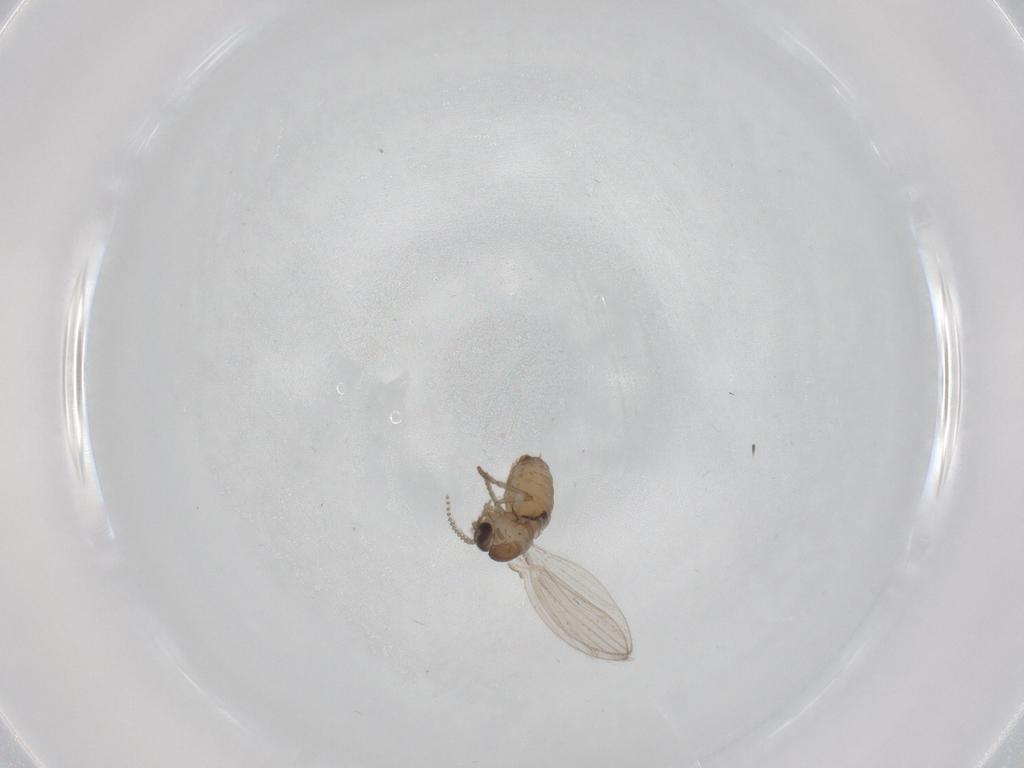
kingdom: Animalia
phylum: Arthropoda
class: Insecta
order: Diptera
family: Psychodidae
